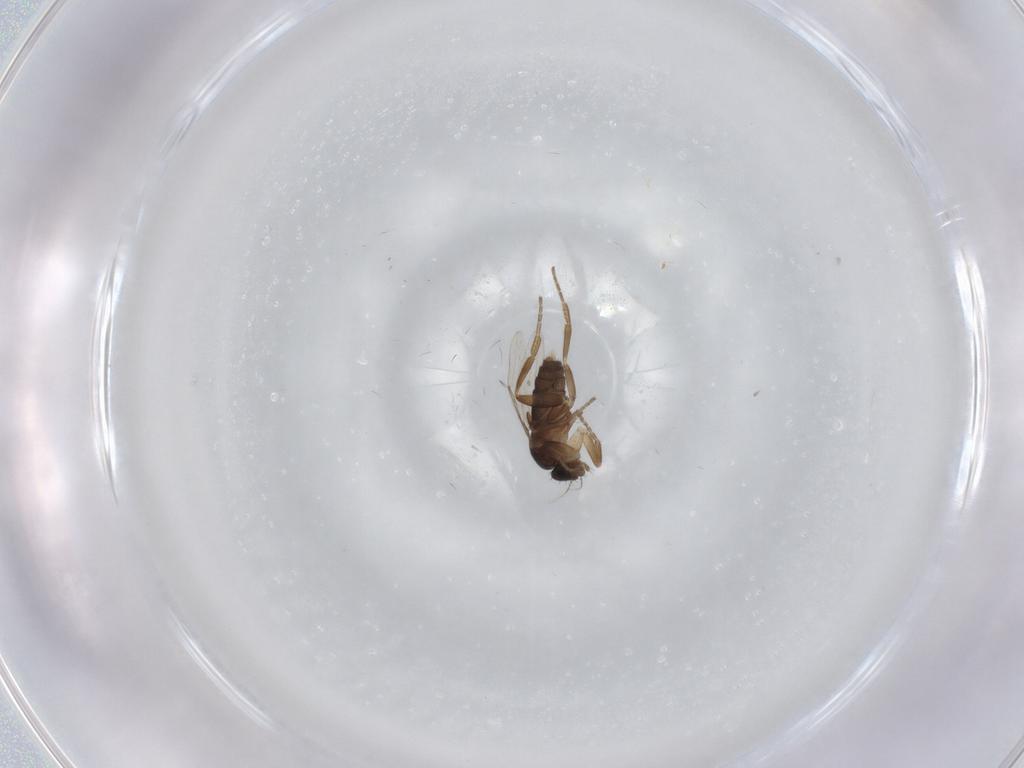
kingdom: Animalia
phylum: Arthropoda
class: Insecta
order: Diptera
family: Phoridae
